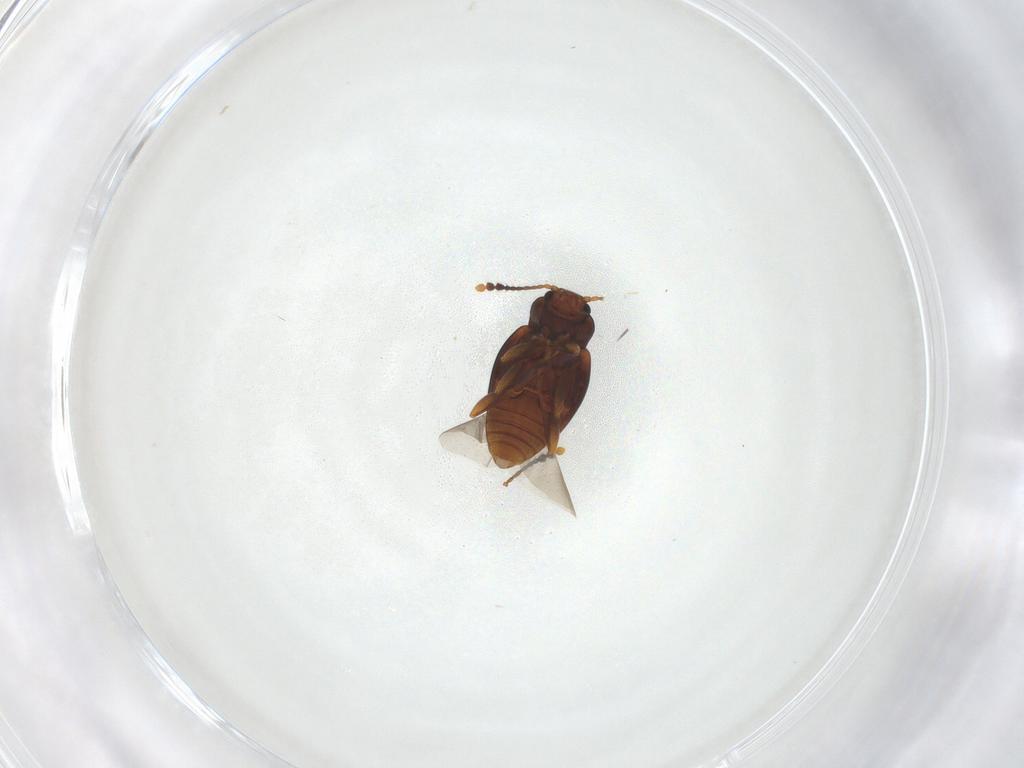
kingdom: Animalia
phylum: Arthropoda
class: Insecta
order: Coleoptera
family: Erotylidae
